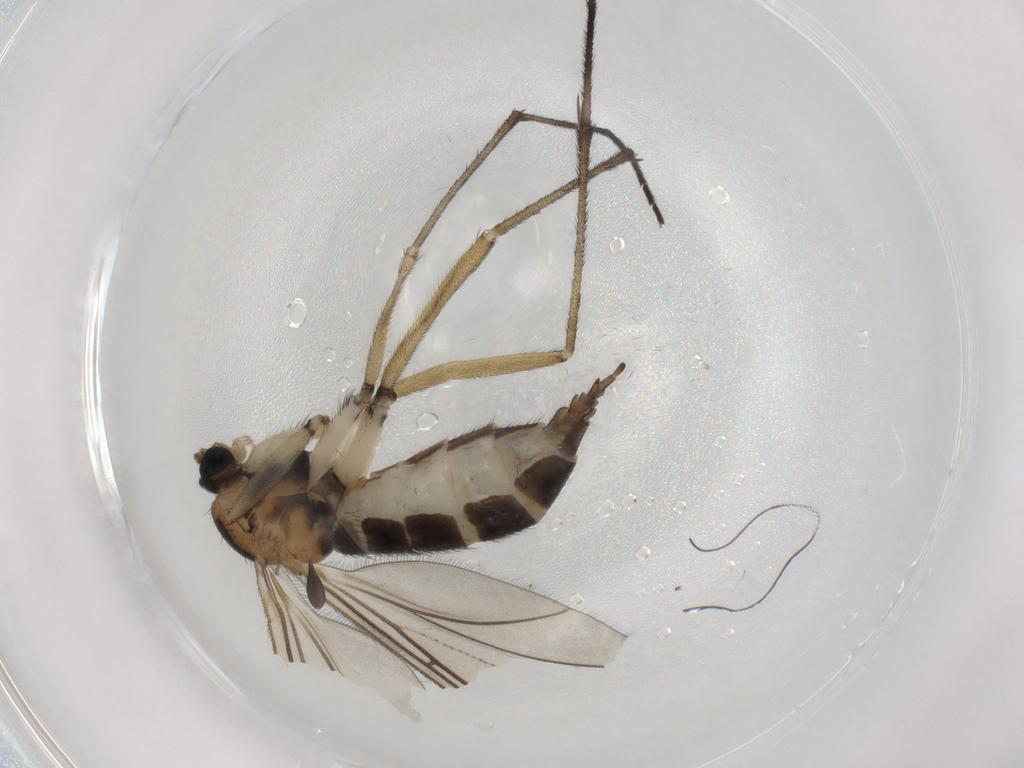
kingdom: Animalia
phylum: Arthropoda
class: Insecta
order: Diptera
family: Sciaridae
